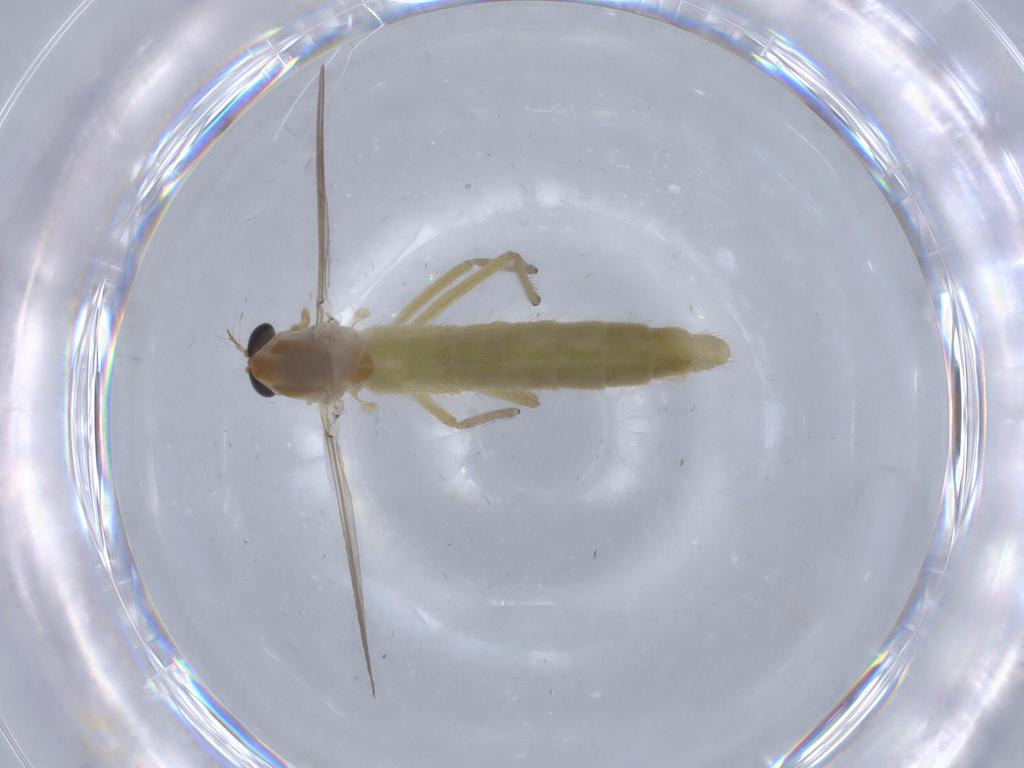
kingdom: Animalia
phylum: Arthropoda
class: Insecta
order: Diptera
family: Chironomidae
